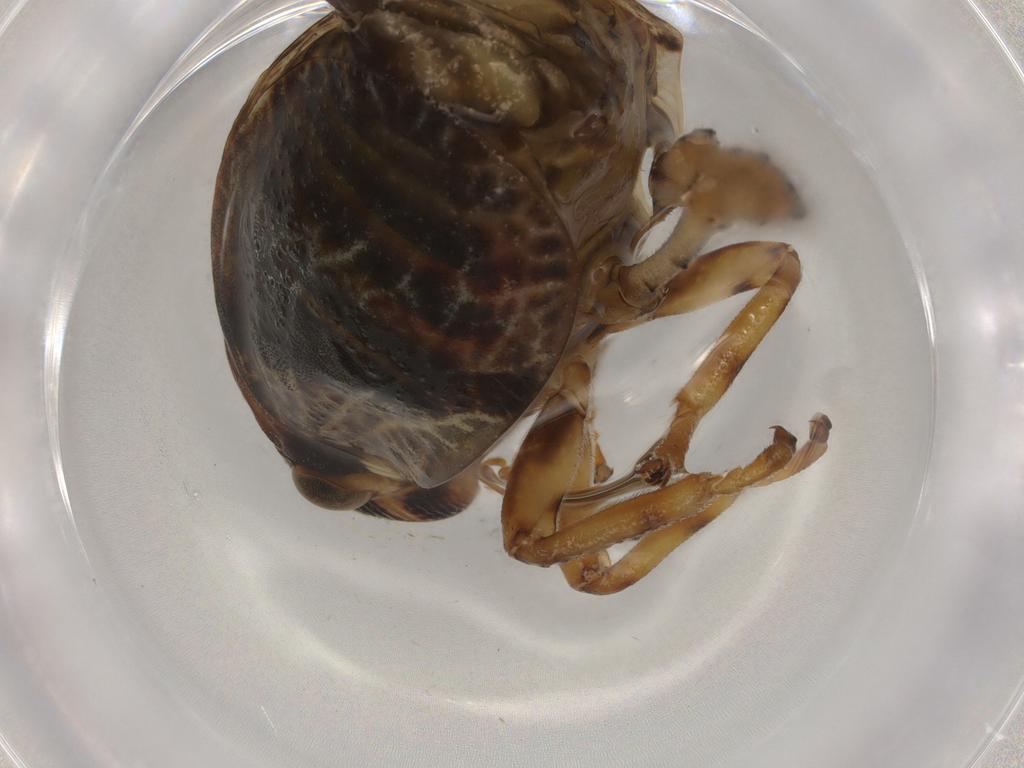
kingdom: Animalia
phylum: Arthropoda
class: Insecta
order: Hemiptera
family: Aphrophoridae
